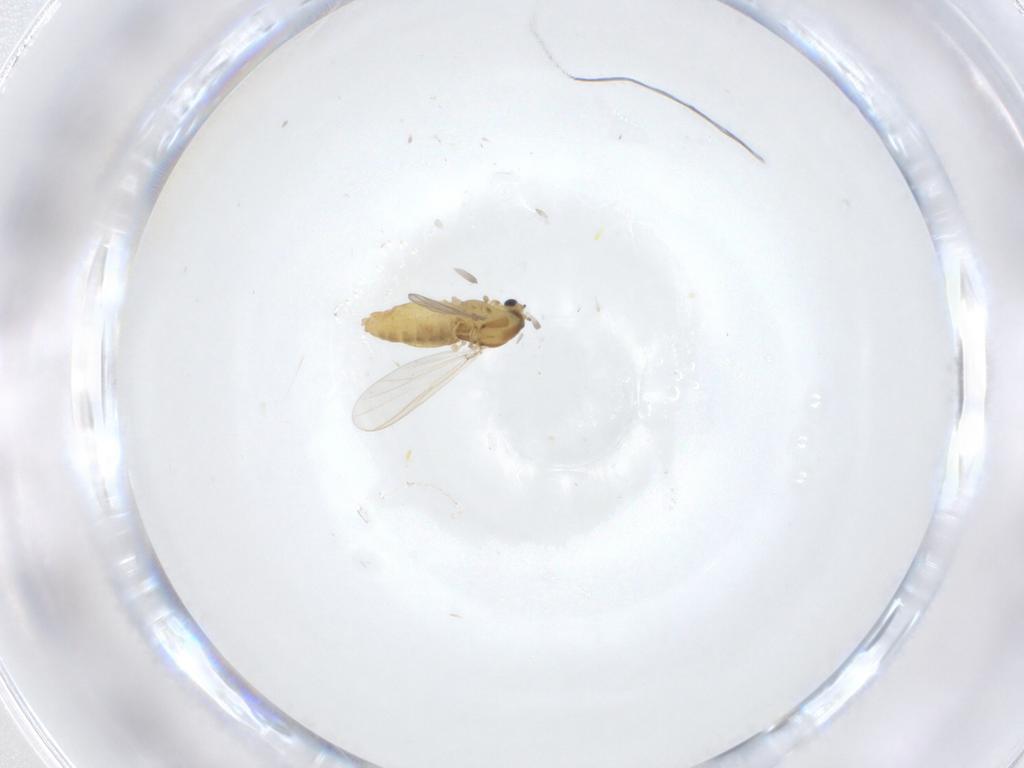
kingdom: Animalia
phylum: Arthropoda
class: Insecta
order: Diptera
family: Chironomidae
